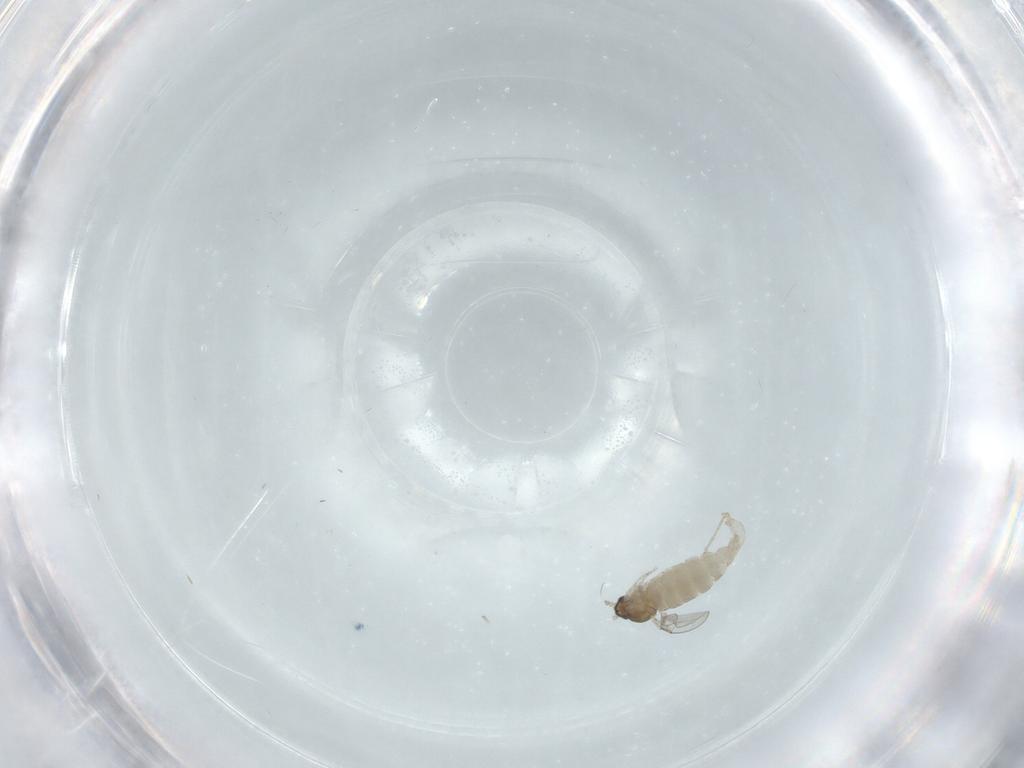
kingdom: Animalia
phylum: Arthropoda
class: Insecta
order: Diptera
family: Cecidomyiidae
